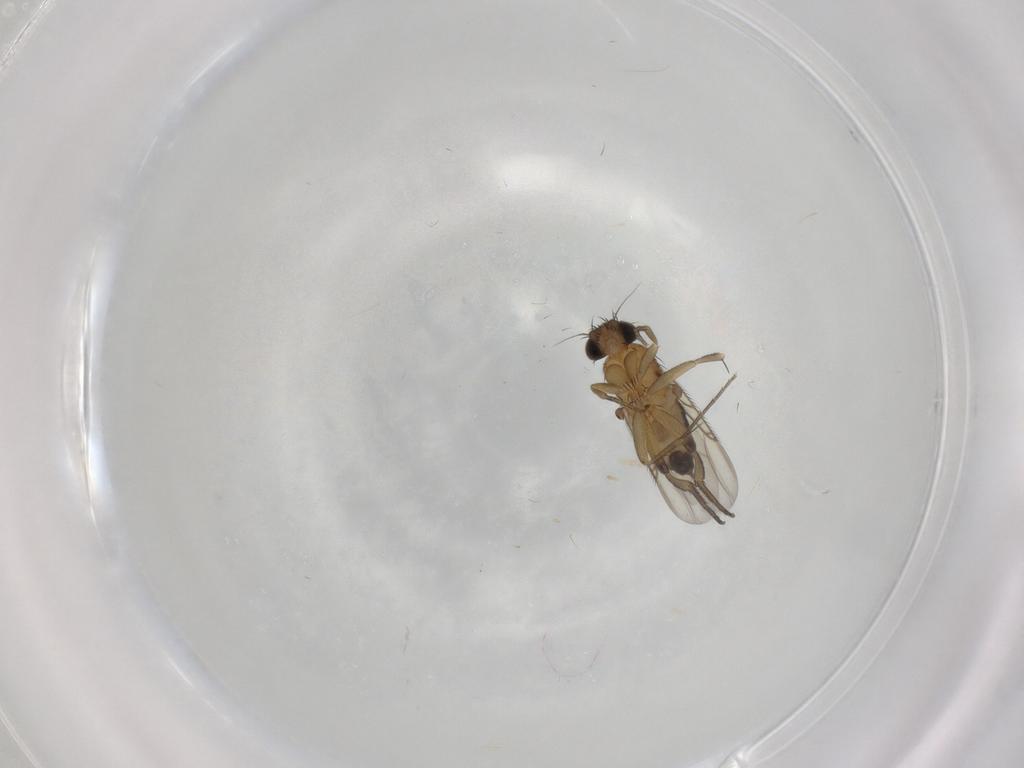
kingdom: Animalia
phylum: Arthropoda
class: Insecta
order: Diptera
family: Phoridae
